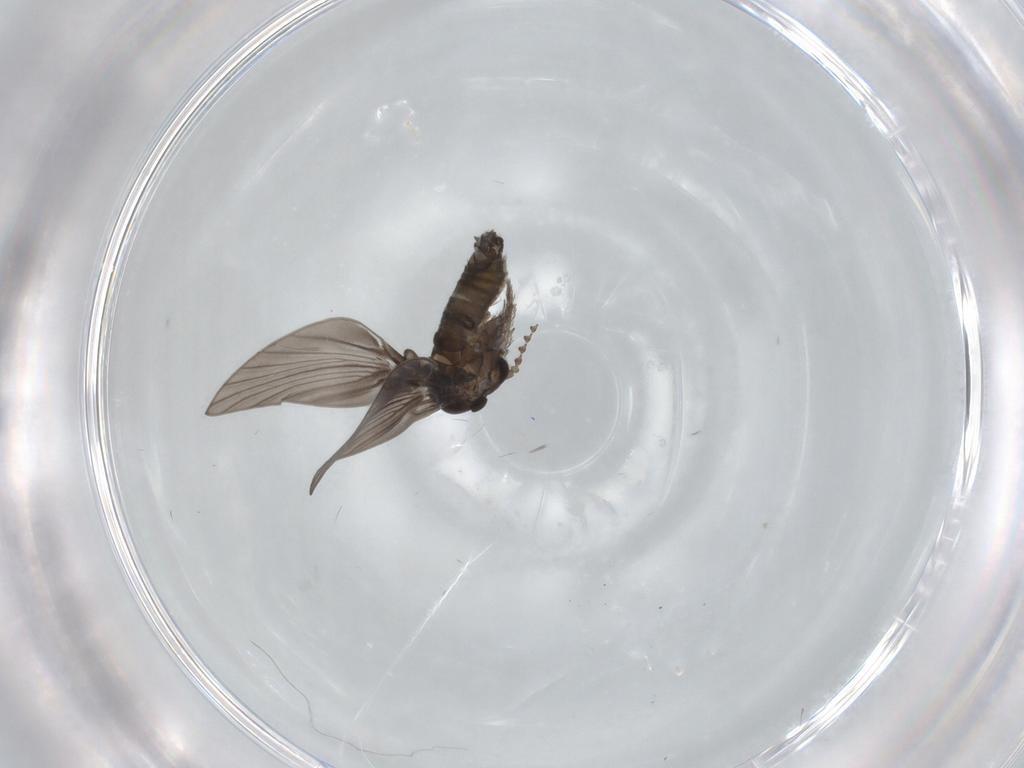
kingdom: Animalia
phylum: Arthropoda
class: Insecta
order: Diptera
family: Psychodidae
